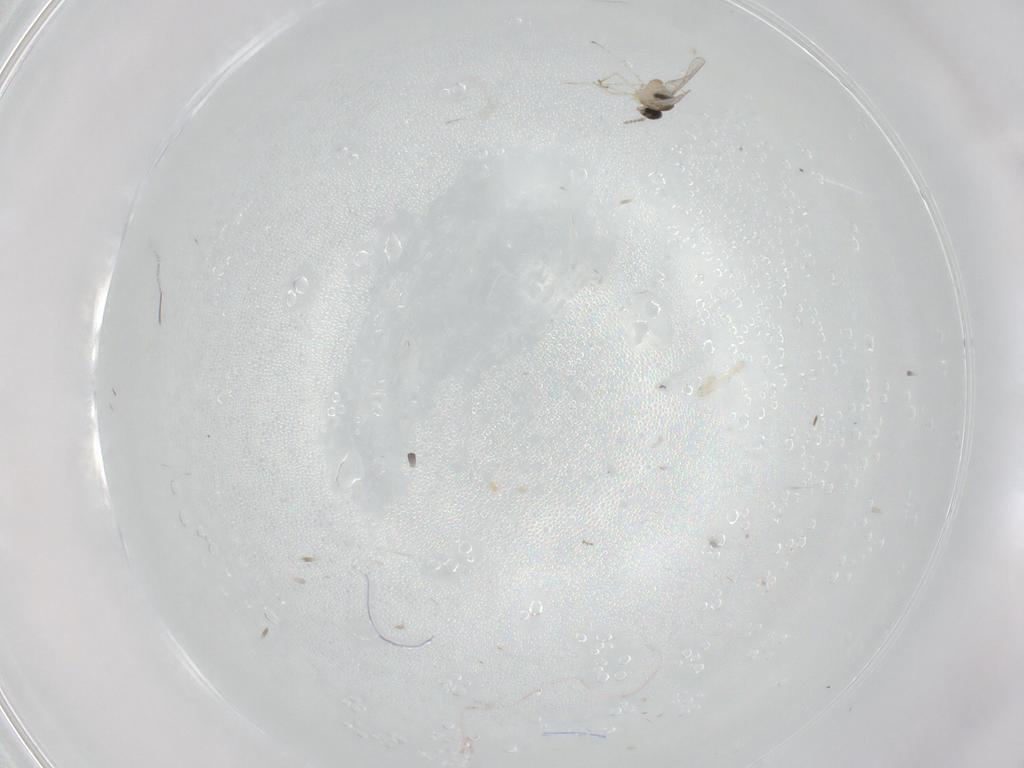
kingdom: Animalia
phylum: Arthropoda
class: Insecta
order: Diptera
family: Cecidomyiidae
